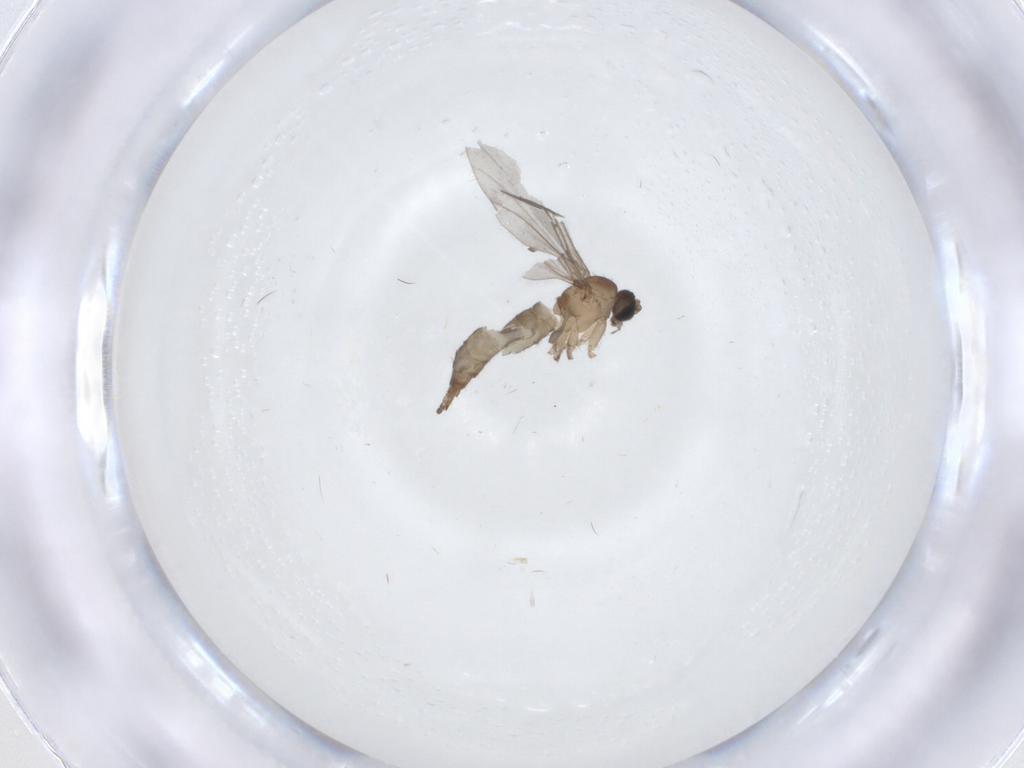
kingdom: Animalia
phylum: Arthropoda
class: Insecta
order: Diptera
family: Sciaridae
